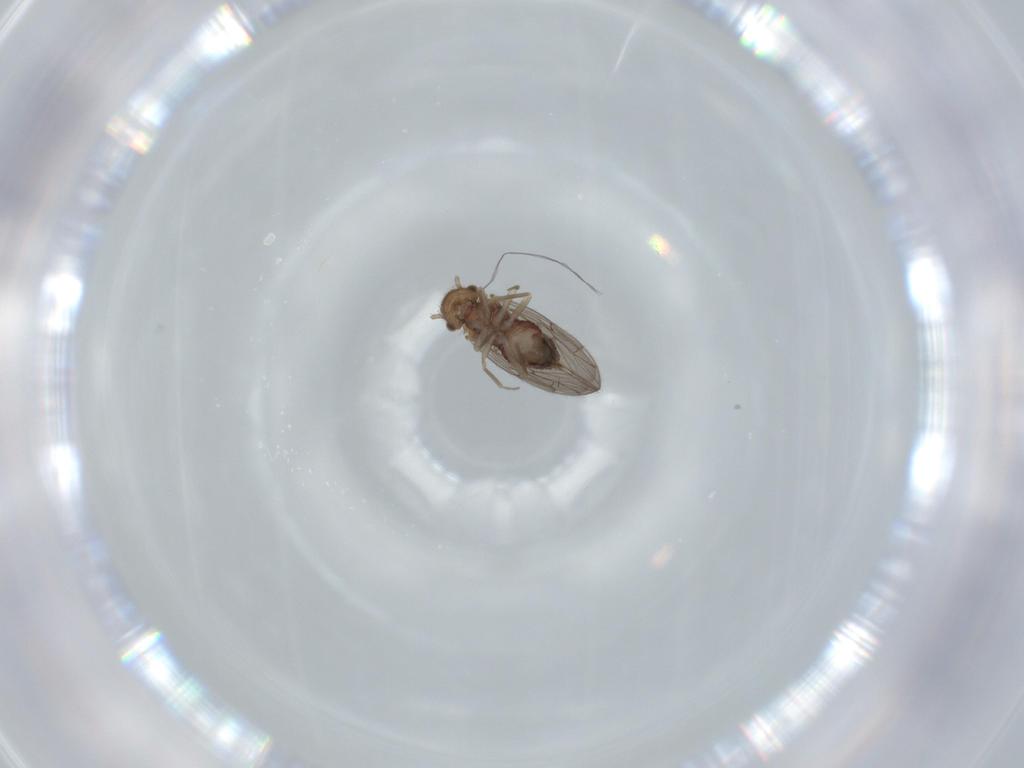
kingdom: Animalia
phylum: Arthropoda
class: Insecta
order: Psocodea
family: Ectopsocidae
